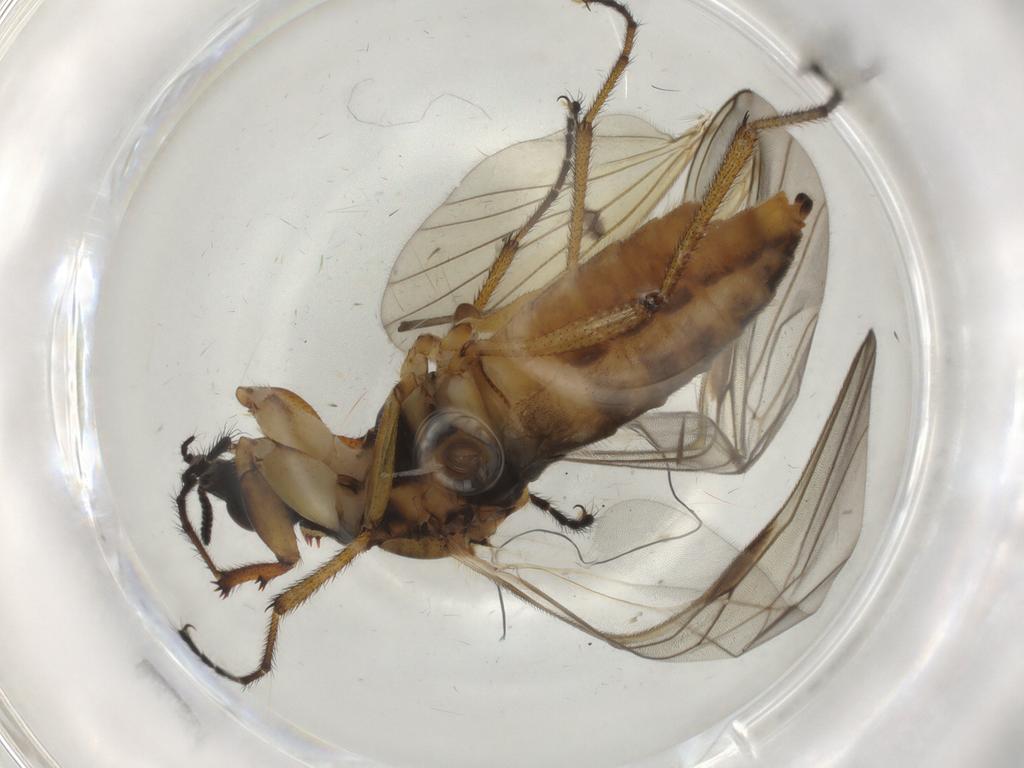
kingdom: Animalia
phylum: Arthropoda
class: Insecta
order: Diptera
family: Bibionidae
